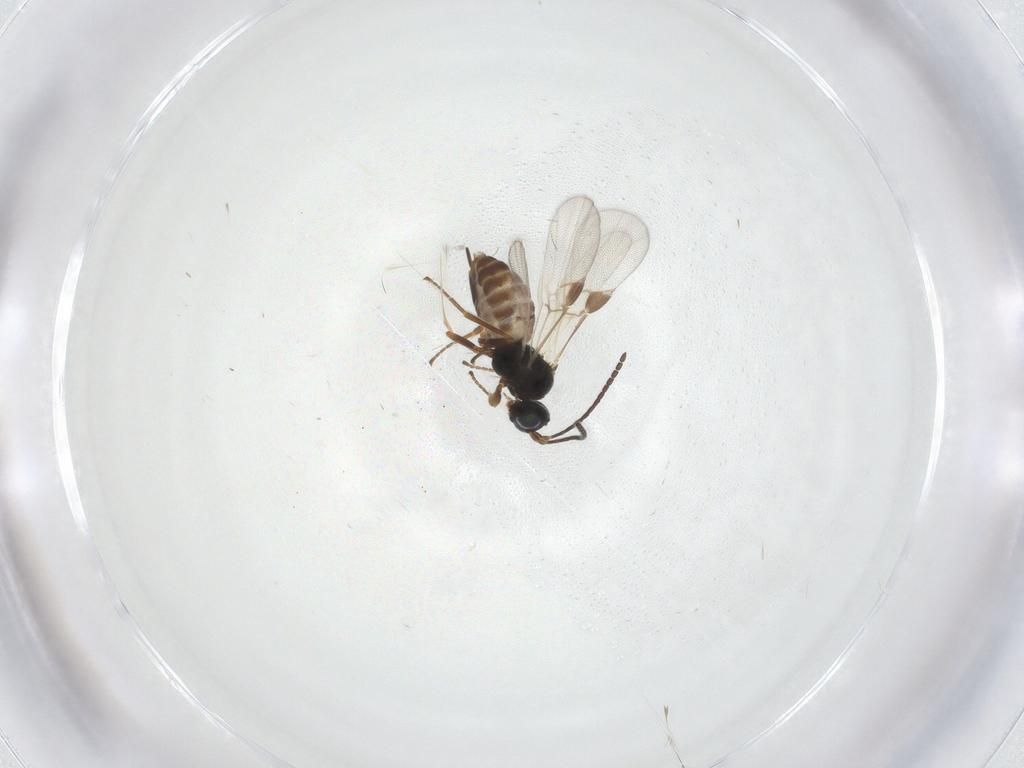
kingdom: Animalia
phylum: Arthropoda
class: Insecta
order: Hymenoptera
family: Braconidae
